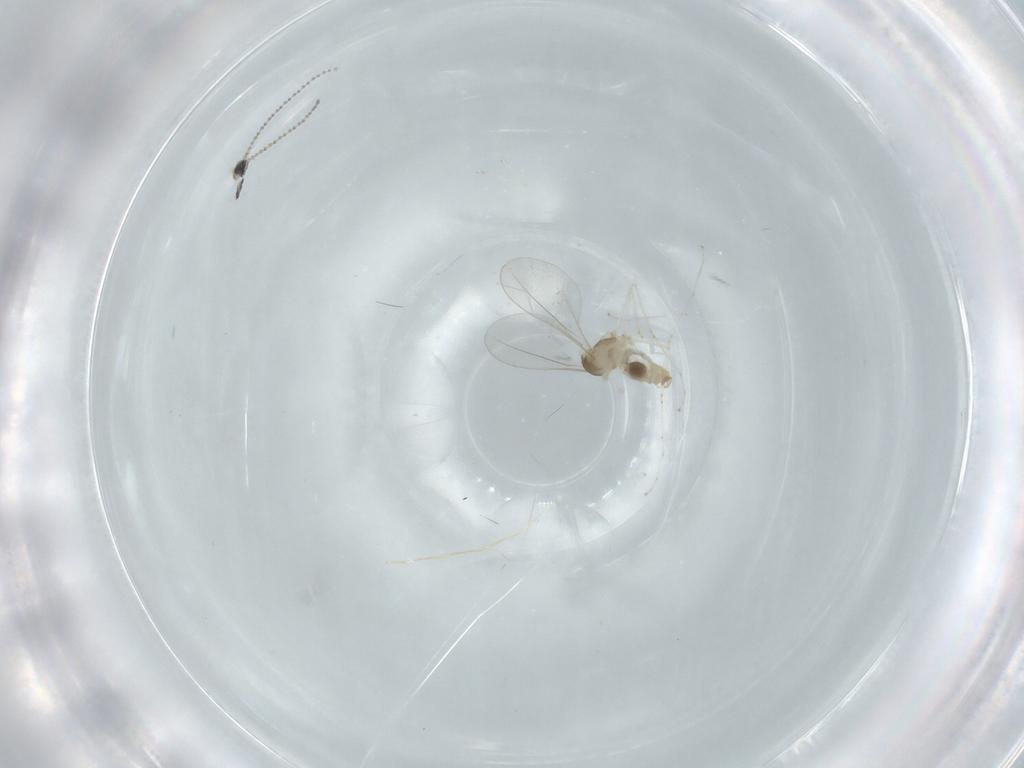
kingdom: Animalia
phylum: Arthropoda
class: Insecta
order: Diptera
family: Cecidomyiidae
